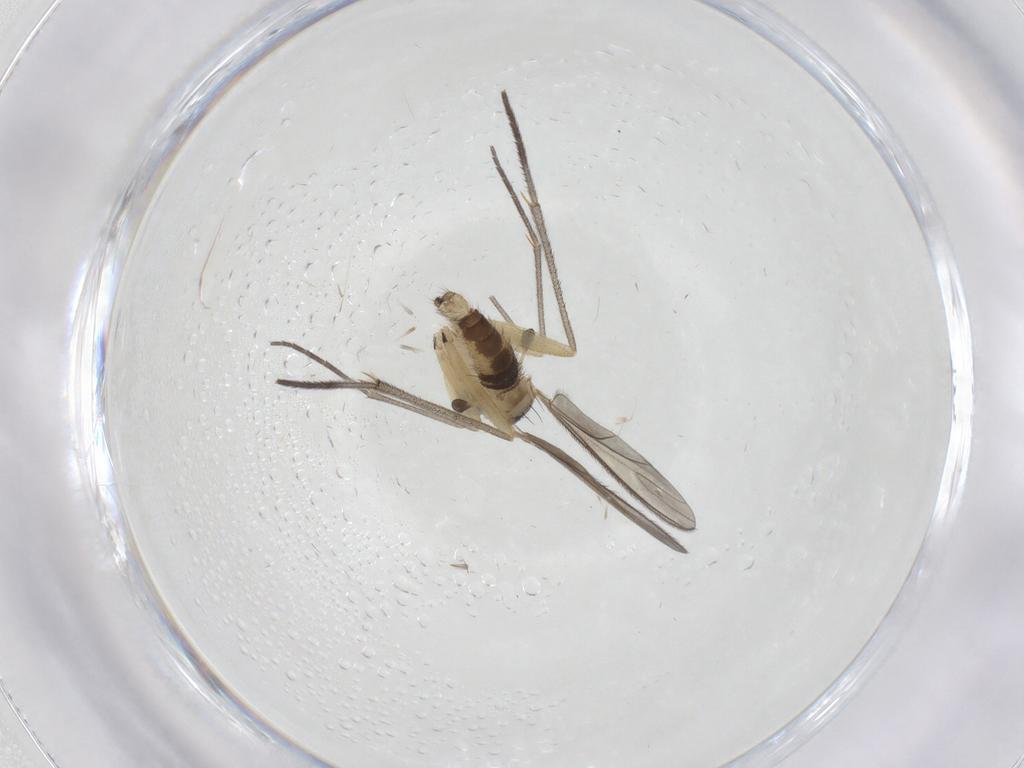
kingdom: Animalia
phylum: Arthropoda
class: Insecta
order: Diptera
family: Sciaridae
